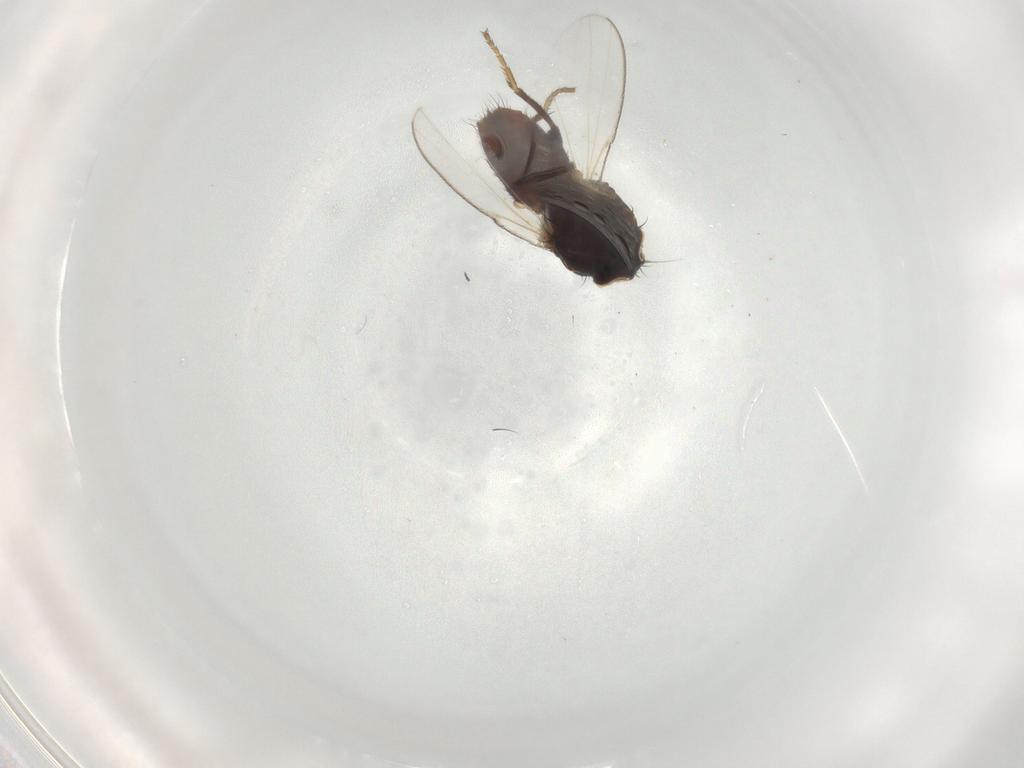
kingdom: Animalia
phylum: Arthropoda
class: Insecta
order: Diptera
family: Milichiidae
